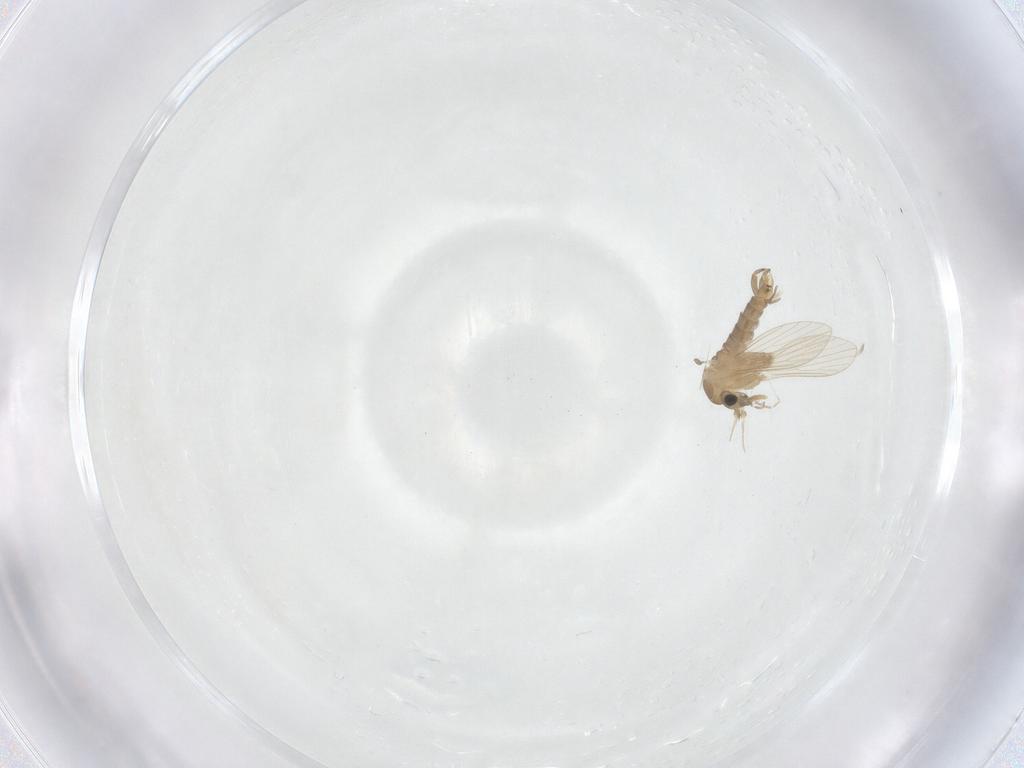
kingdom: Animalia
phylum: Arthropoda
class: Insecta
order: Diptera
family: Psychodidae
